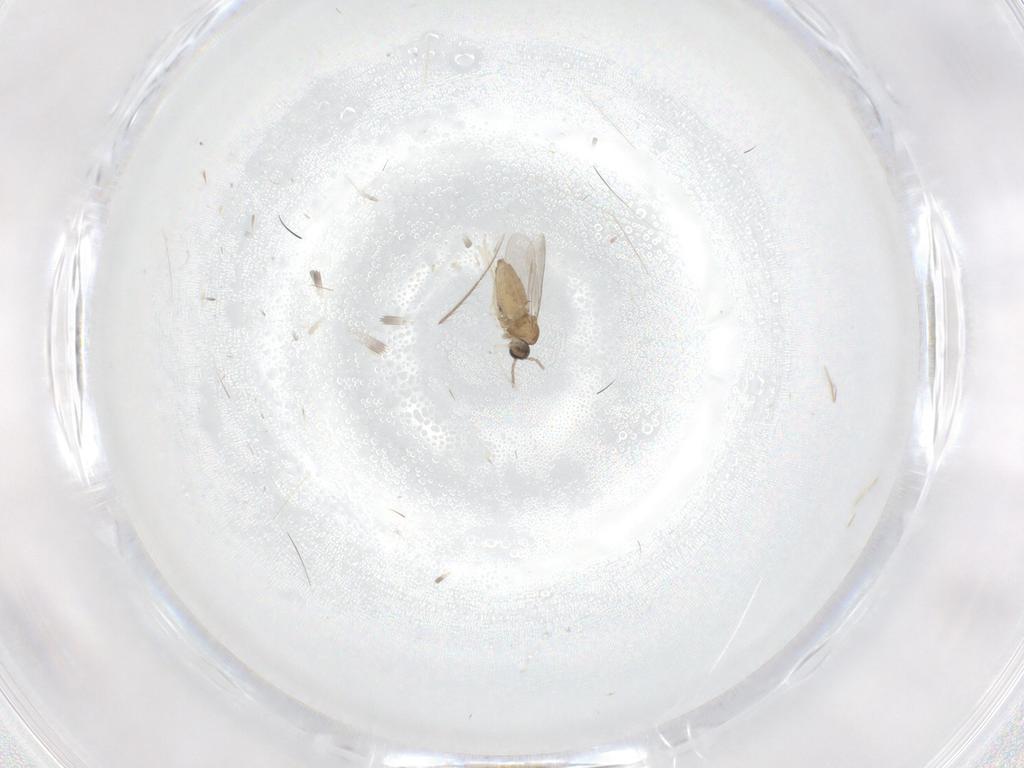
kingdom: Animalia
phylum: Arthropoda
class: Insecta
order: Diptera
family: Cecidomyiidae
